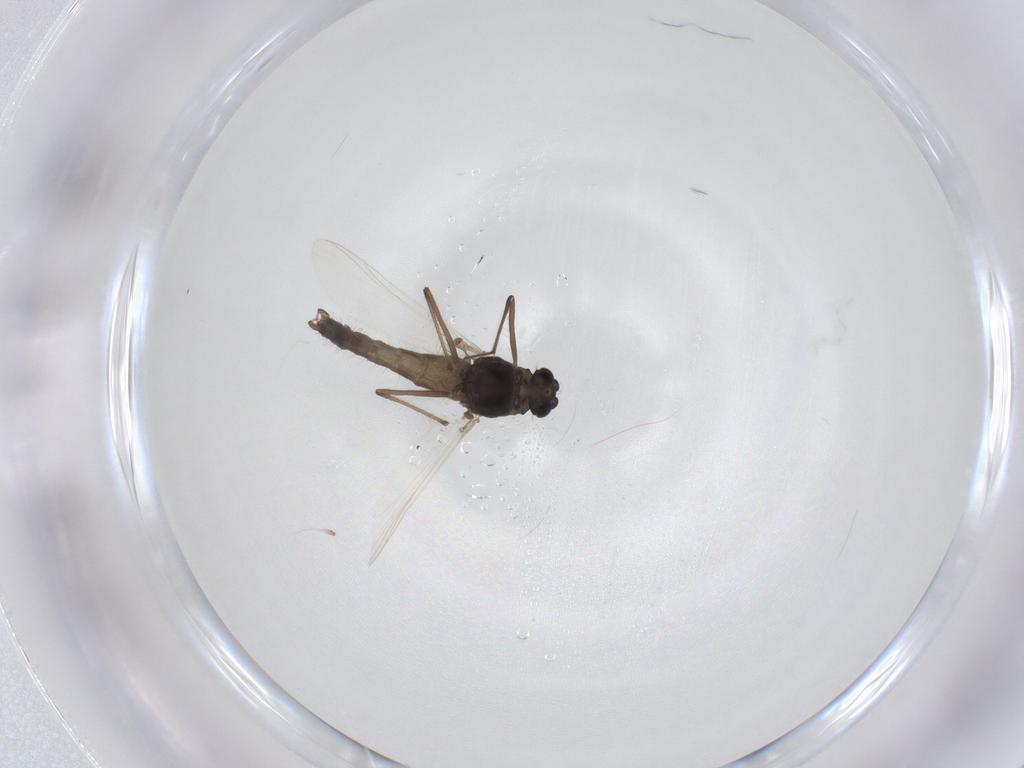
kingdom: Animalia
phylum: Arthropoda
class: Insecta
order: Diptera
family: Chironomidae
